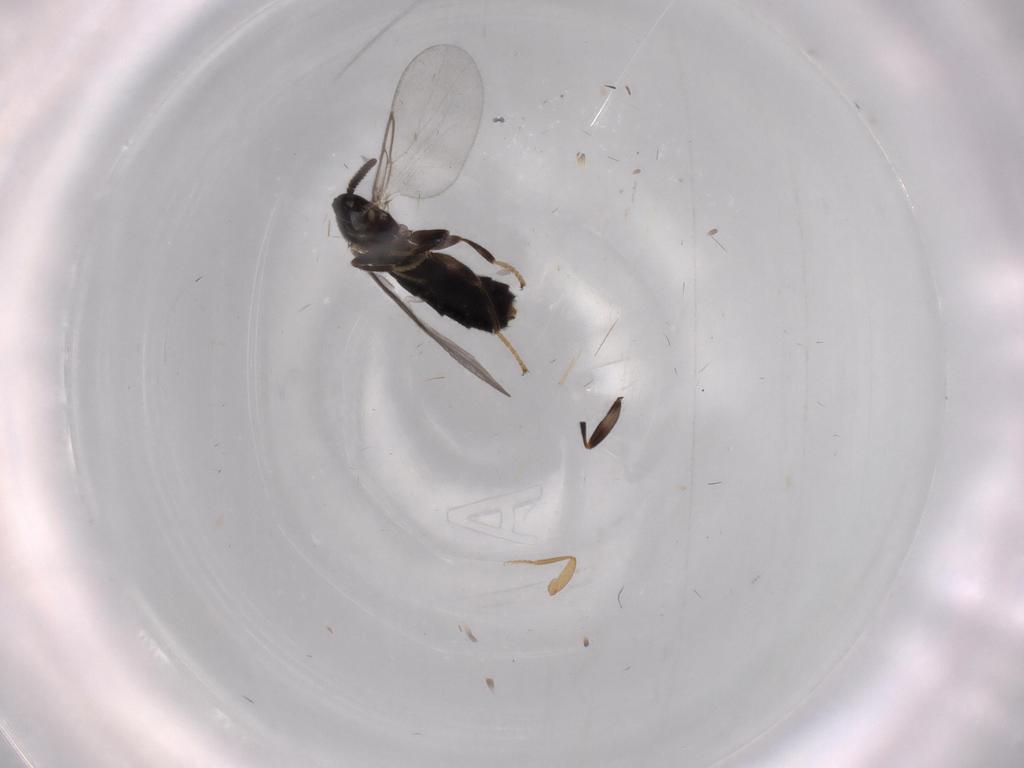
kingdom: Animalia
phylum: Arthropoda
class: Insecta
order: Diptera
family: Scatopsidae
